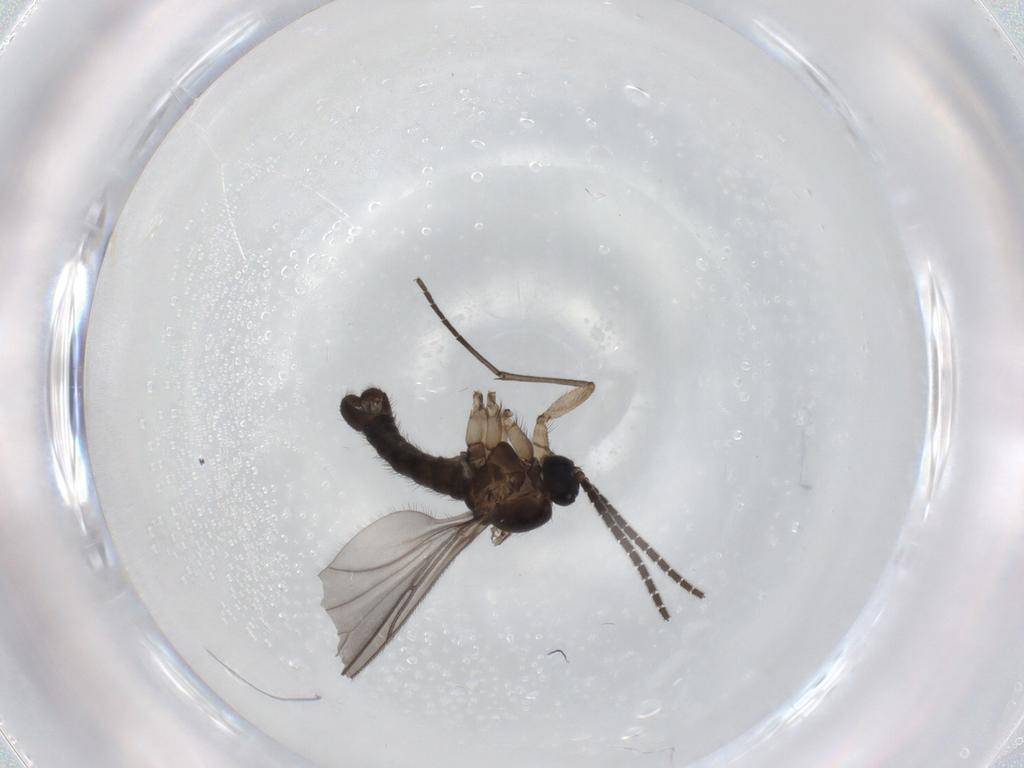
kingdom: Animalia
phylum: Arthropoda
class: Insecta
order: Diptera
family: Sciaridae
